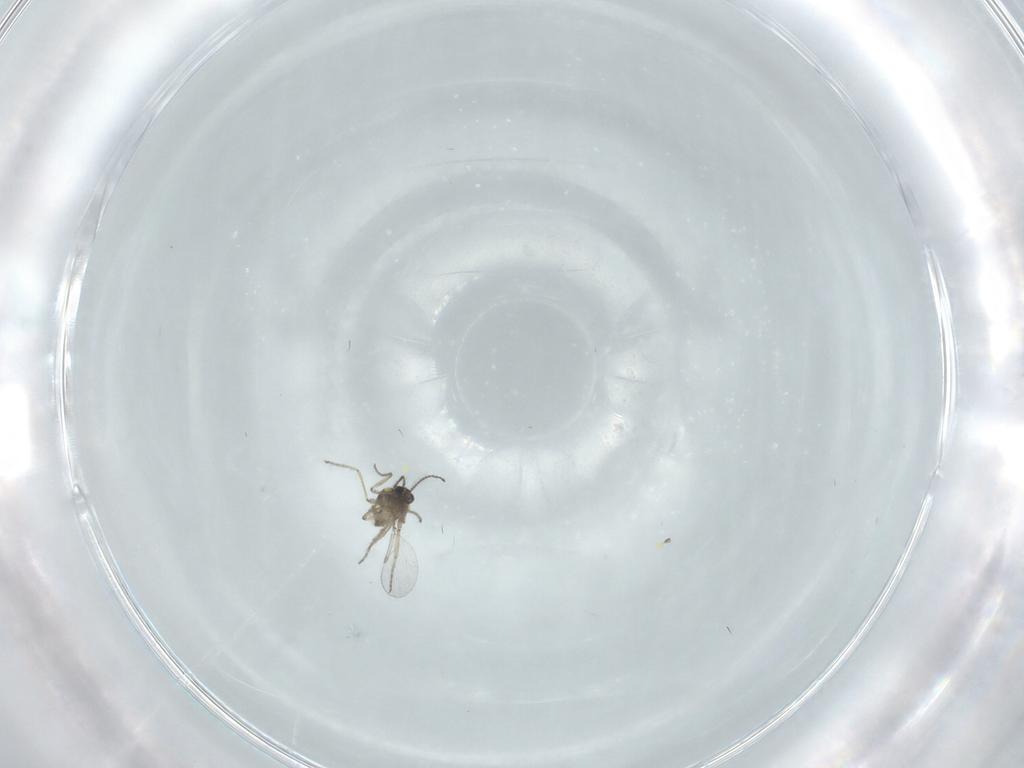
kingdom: Animalia
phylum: Arthropoda
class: Insecta
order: Diptera
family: Ceratopogonidae
